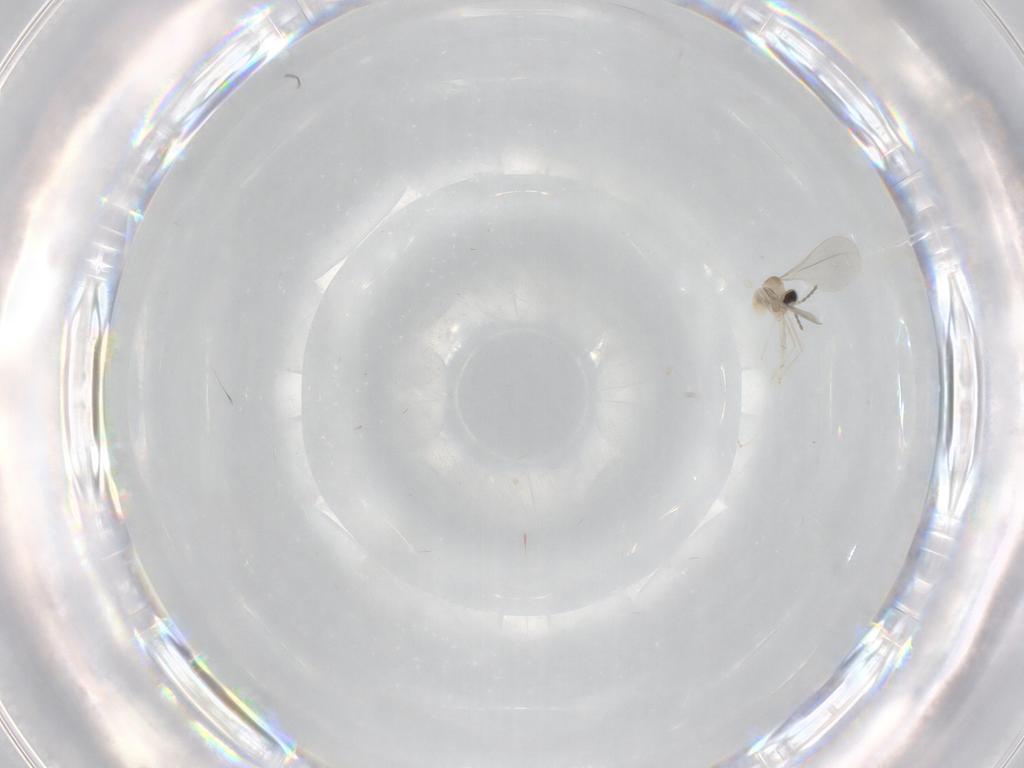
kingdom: Animalia
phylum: Arthropoda
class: Insecta
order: Diptera
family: Cecidomyiidae
